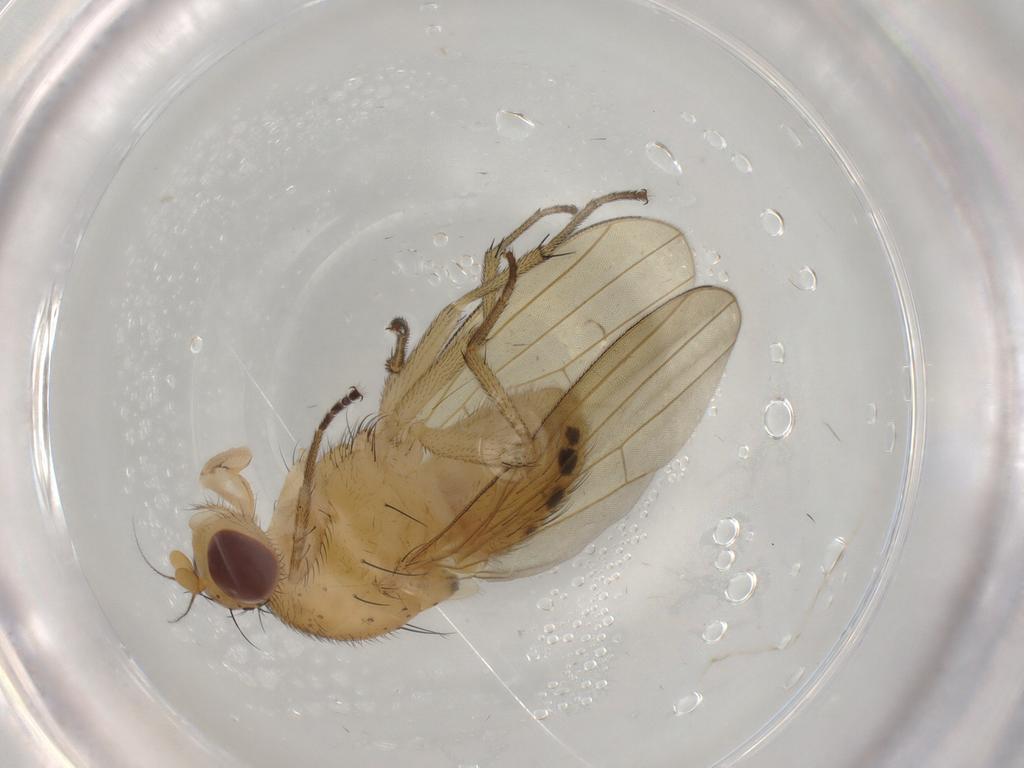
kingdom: Animalia
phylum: Arthropoda
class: Insecta
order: Diptera
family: Lauxaniidae
